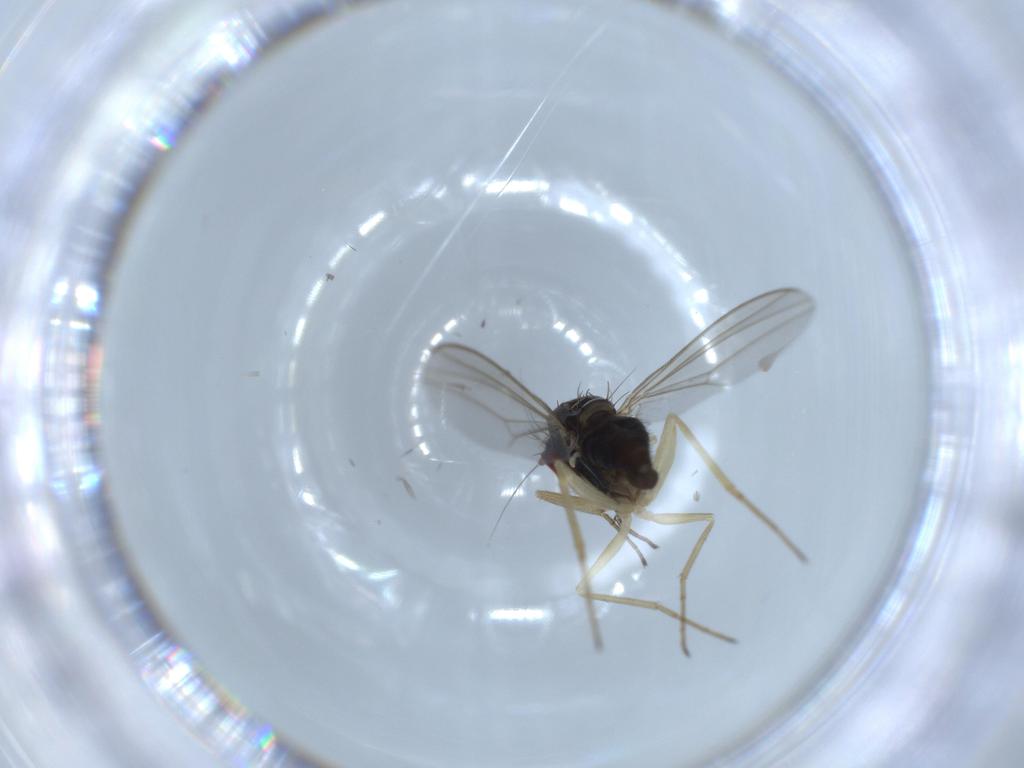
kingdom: Animalia
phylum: Arthropoda
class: Insecta
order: Diptera
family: Dolichopodidae
